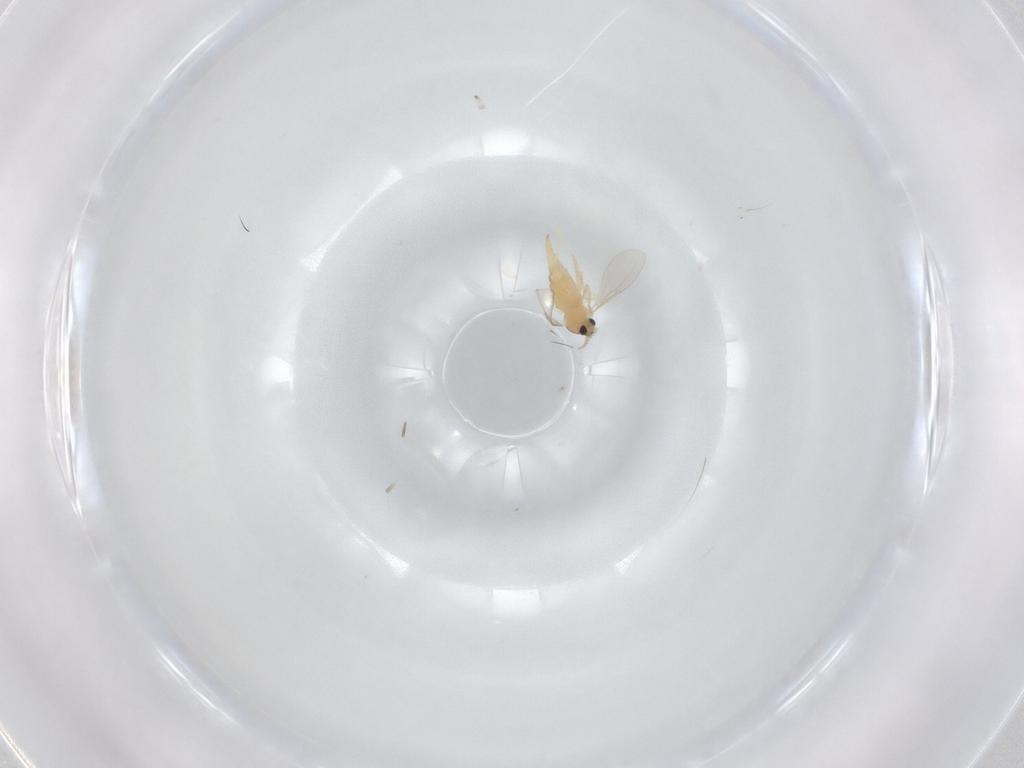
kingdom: Animalia
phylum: Arthropoda
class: Insecta
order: Diptera
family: Cecidomyiidae
